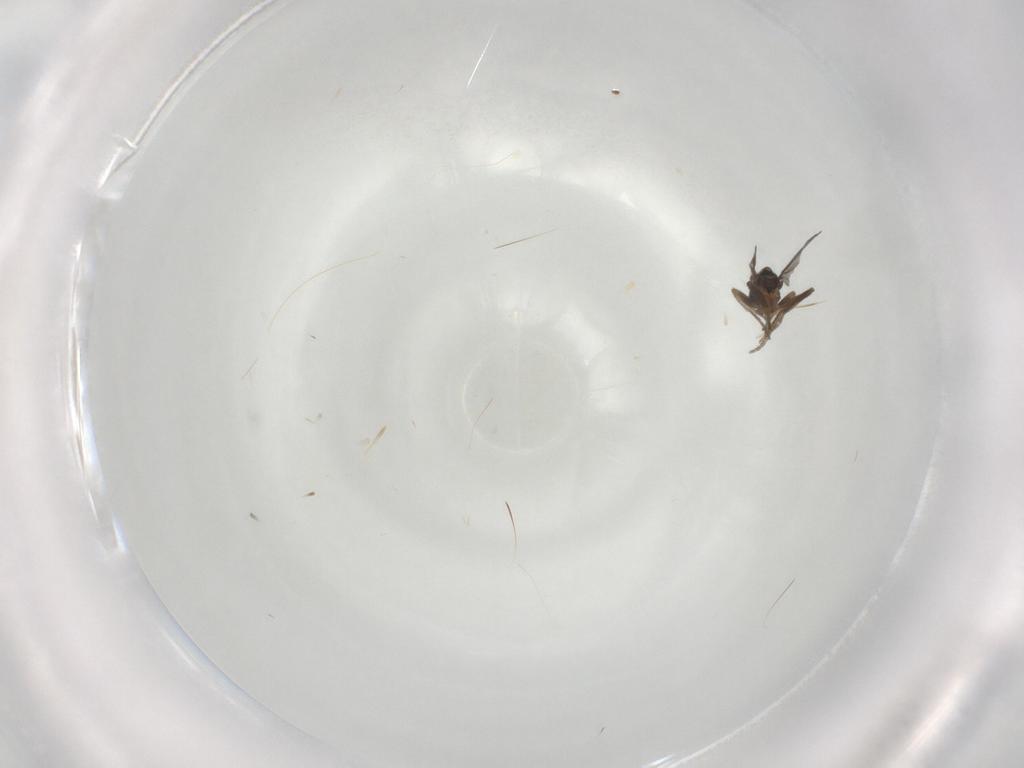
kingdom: Animalia
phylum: Arthropoda
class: Insecta
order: Diptera
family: Phoridae
